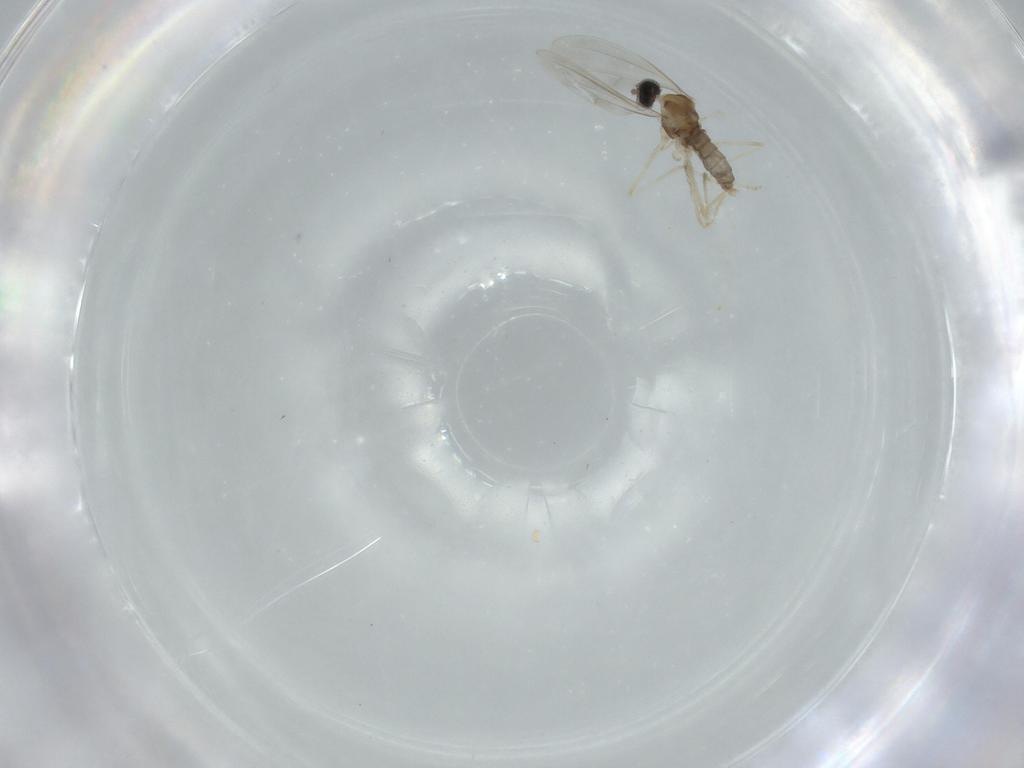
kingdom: Animalia
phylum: Arthropoda
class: Insecta
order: Diptera
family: Cecidomyiidae
